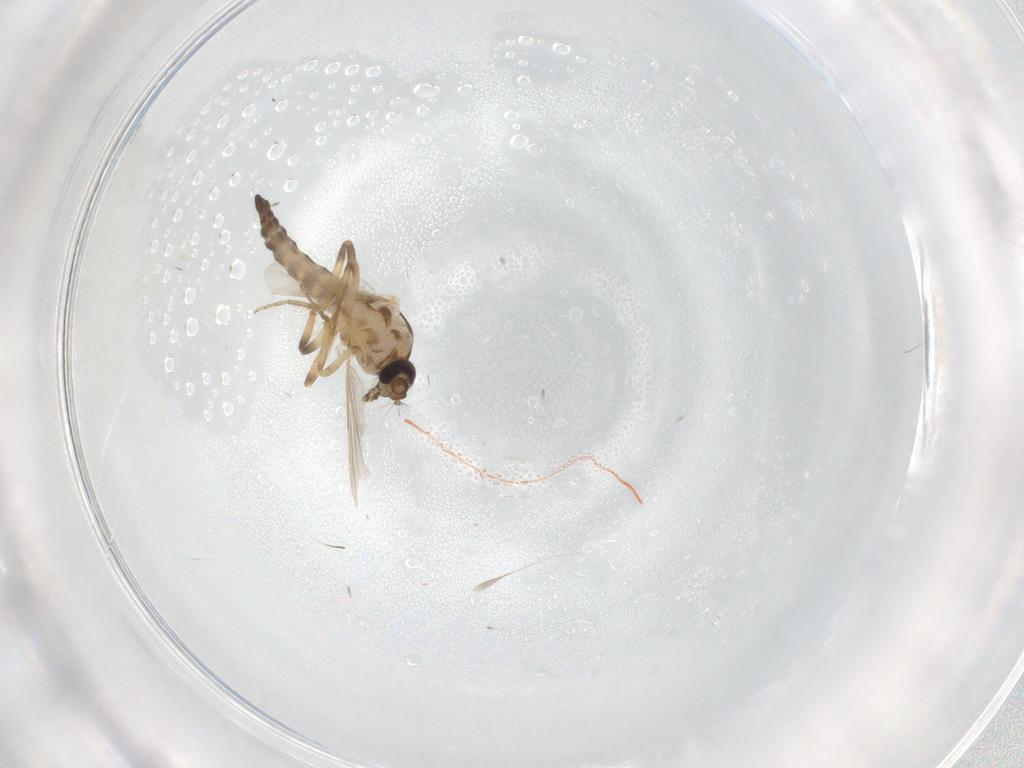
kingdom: Animalia
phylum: Arthropoda
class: Insecta
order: Diptera
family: Ceratopogonidae
